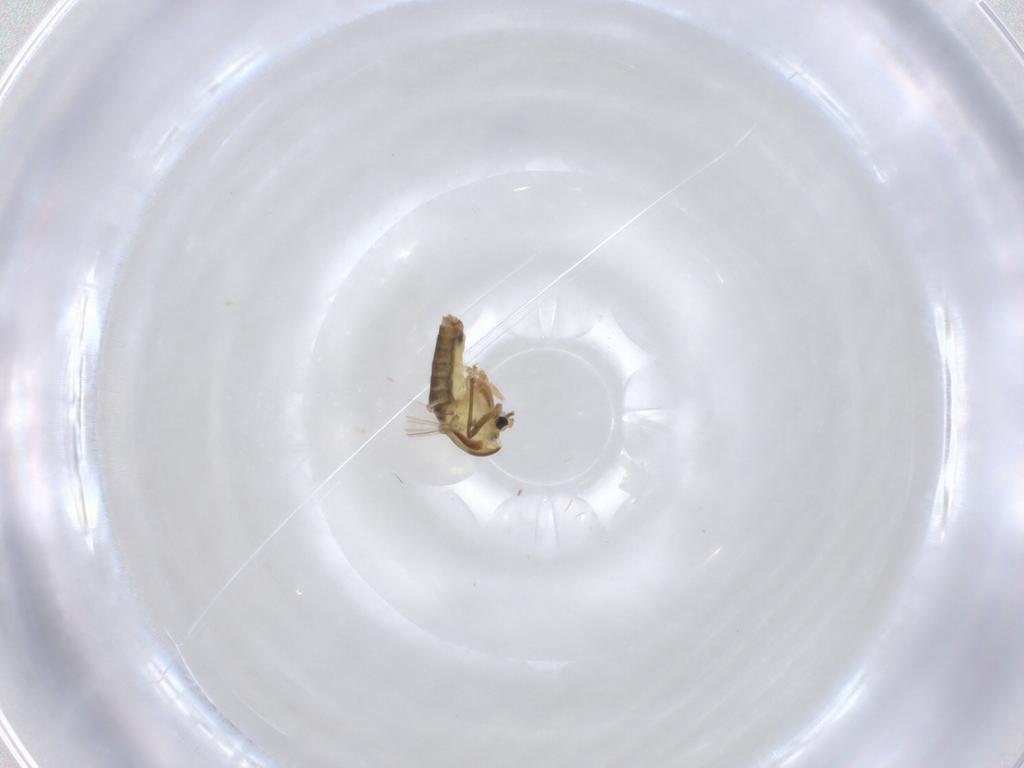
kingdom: Animalia
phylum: Arthropoda
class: Insecta
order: Diptera
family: Chironomidae
